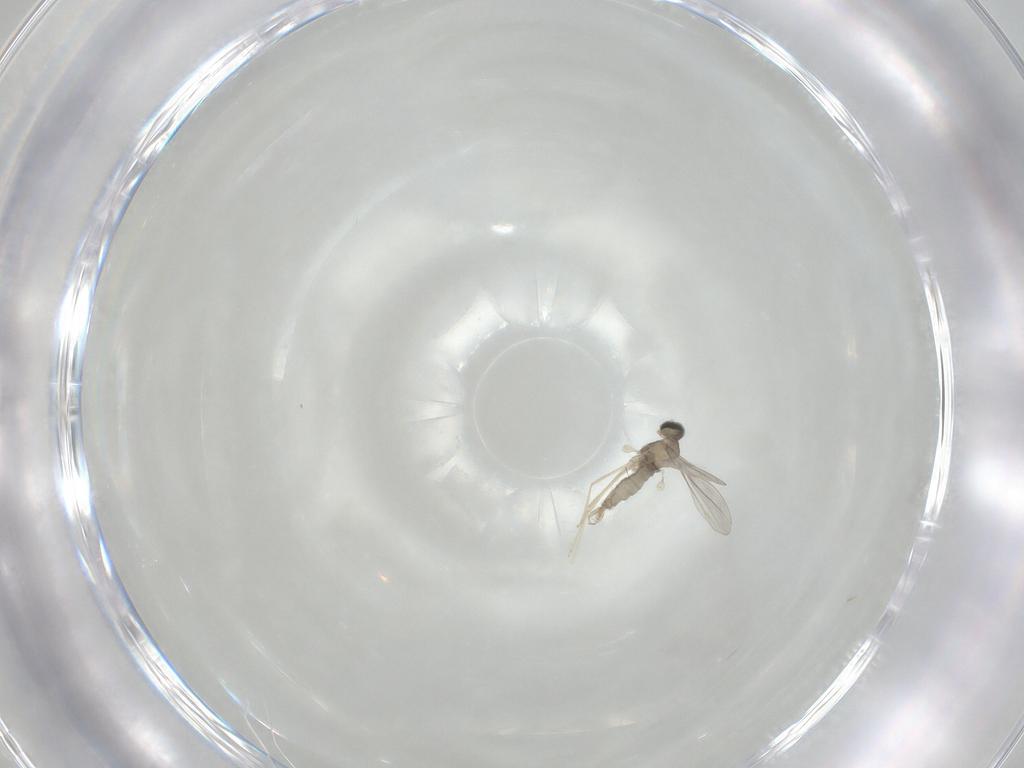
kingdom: Animalia
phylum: Arthropoda
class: Insecta
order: Diptera
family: Cecidomyiidae
